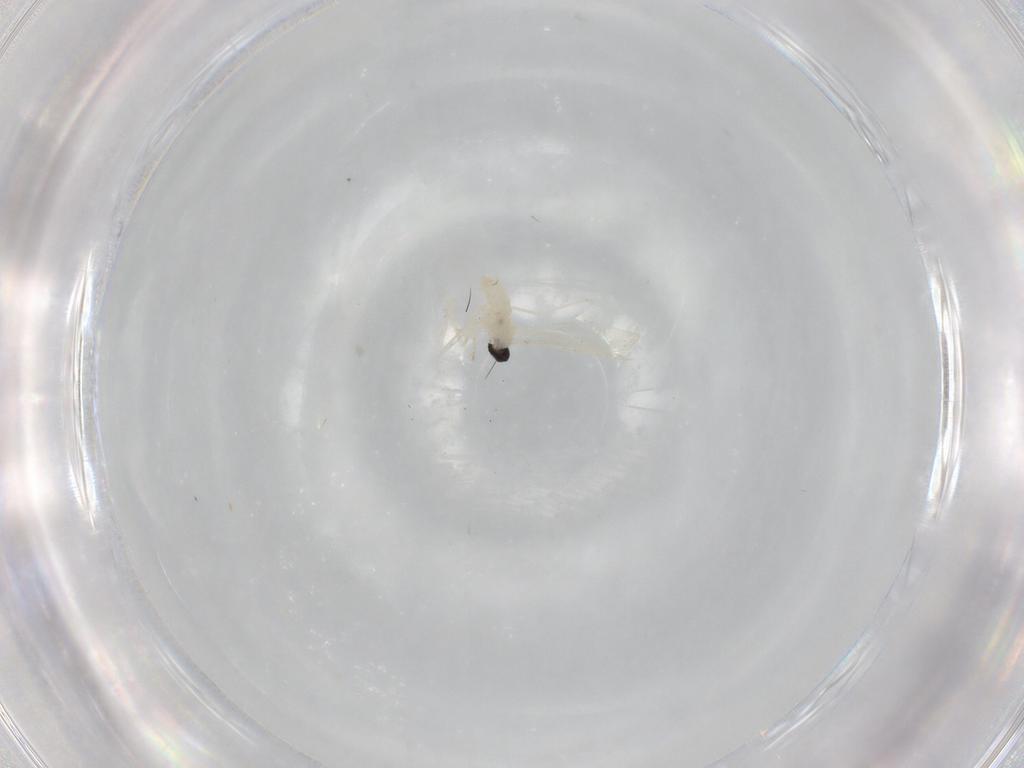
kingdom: Animalia
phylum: Arthropoda
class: Insecta
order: Diptera
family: Cecidomyiidae
